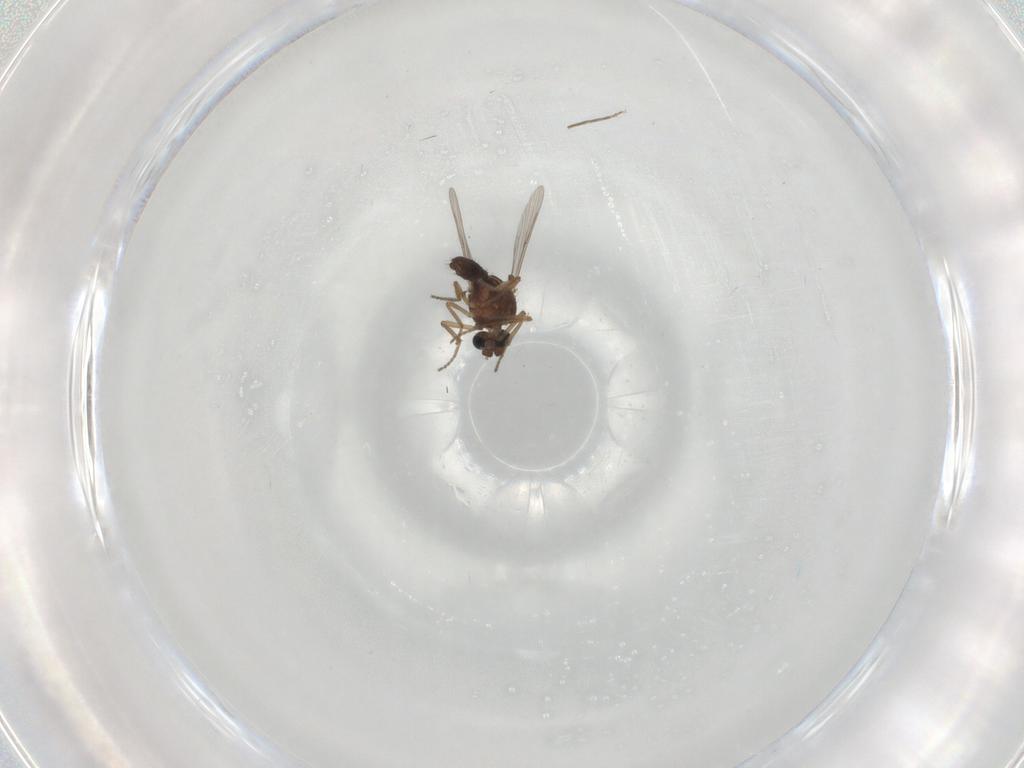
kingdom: Animalia
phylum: Arthropoda
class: Insecta
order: Diptera
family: Ceratopogonidae
